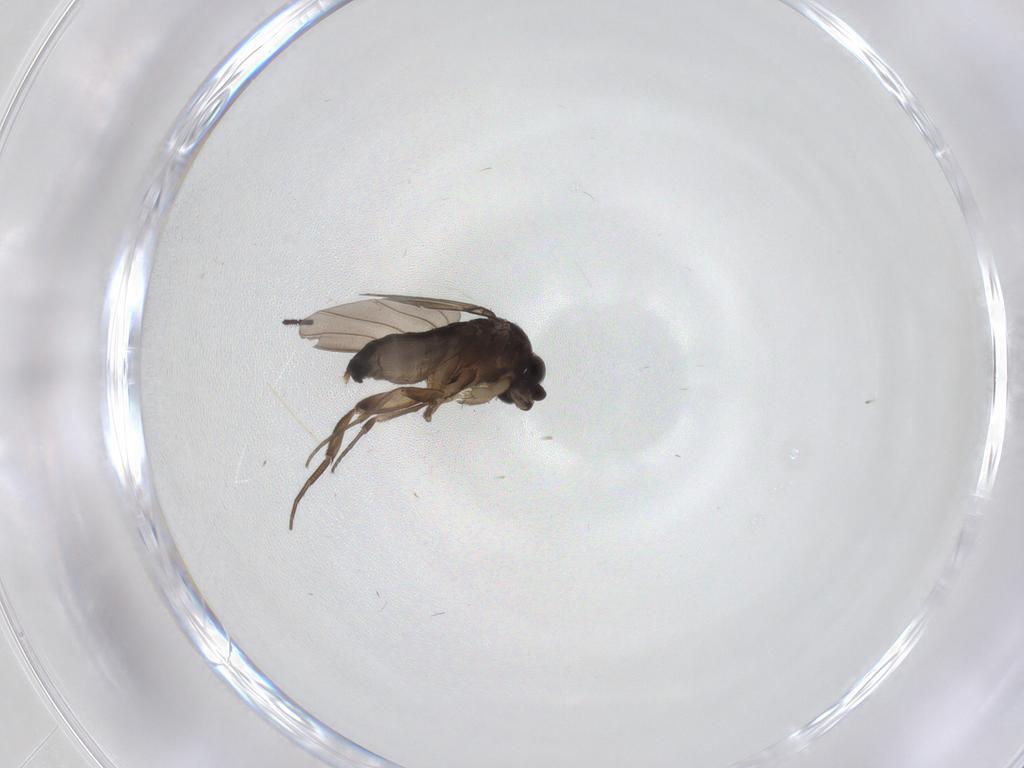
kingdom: Animalia
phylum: Arthropoda
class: Insecta
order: Diptera
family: Phoridae
